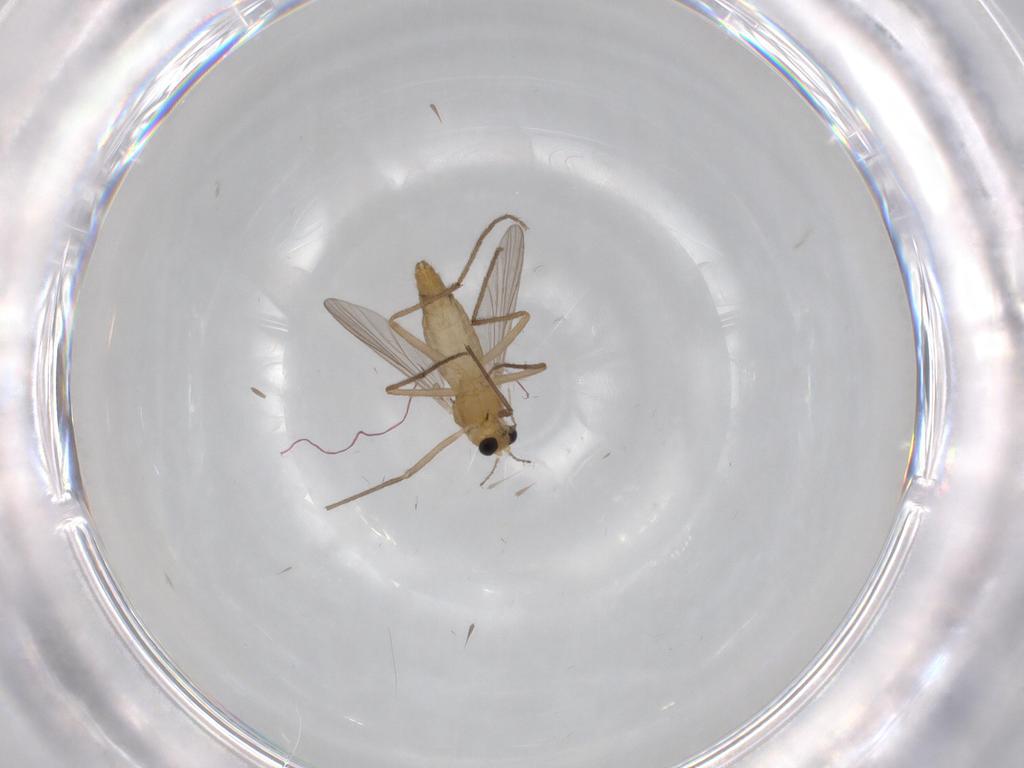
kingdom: Animalia
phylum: Arthropoda
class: Insecta
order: Diptera
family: Chironomidae
